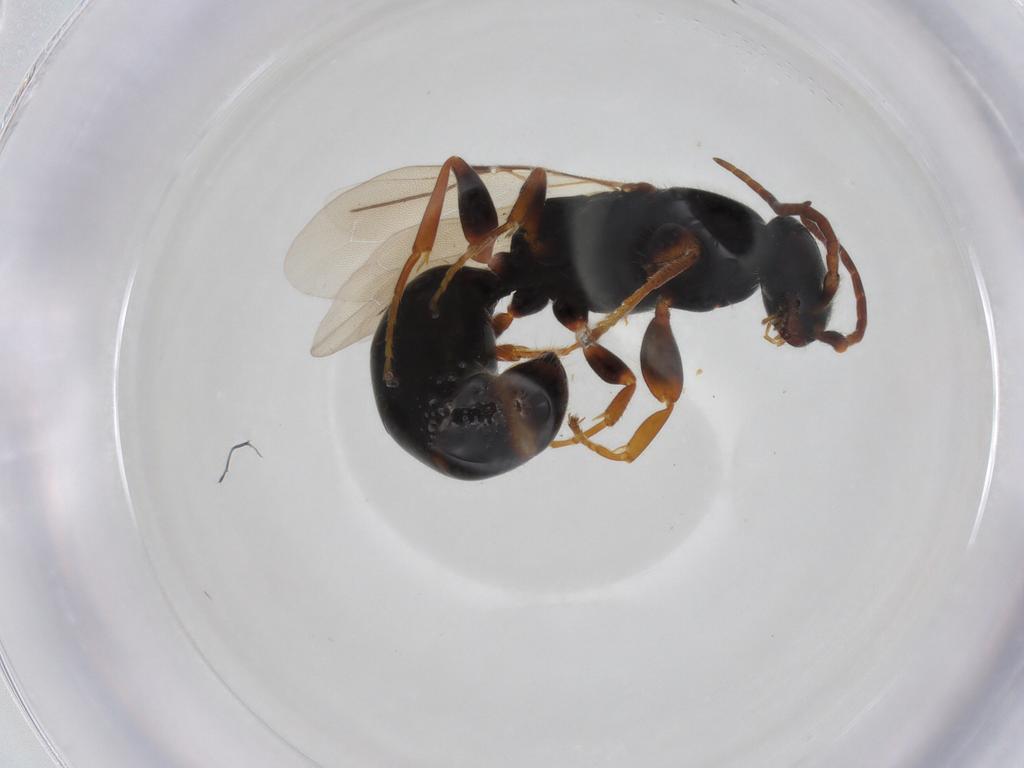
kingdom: Animalia
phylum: Arthropoda
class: Insecta
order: Hymenoptera
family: Bethylidae
